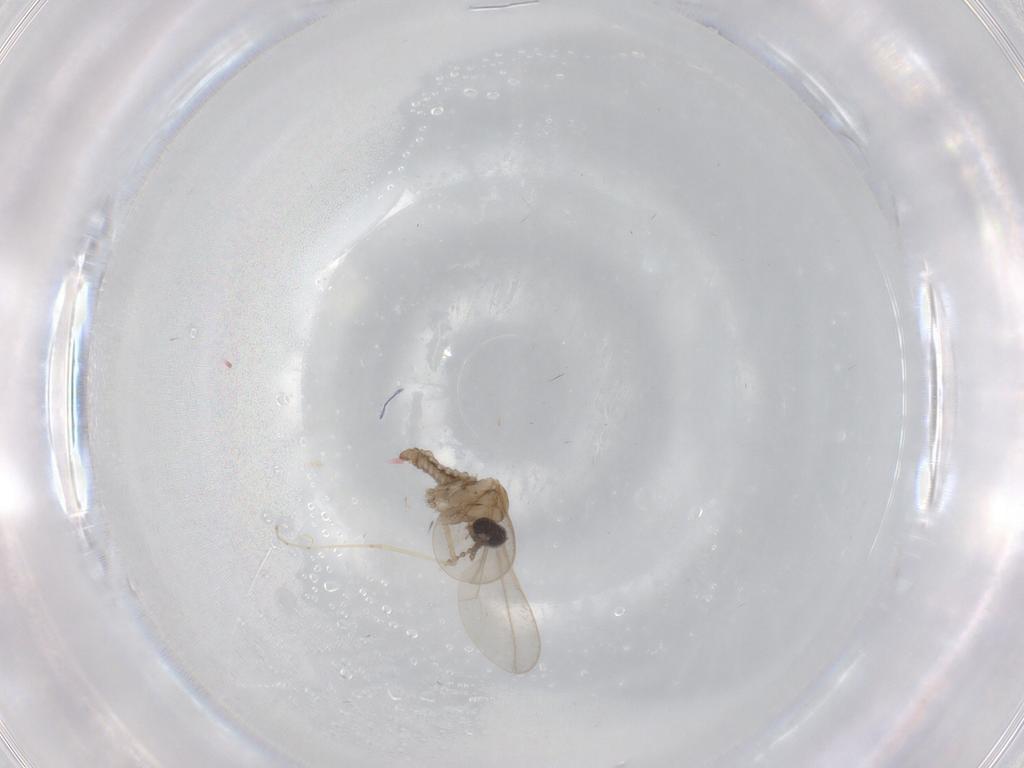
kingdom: Animalia
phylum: Arthropoda
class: Insecta
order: Diptera
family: Cecidomyiidae
